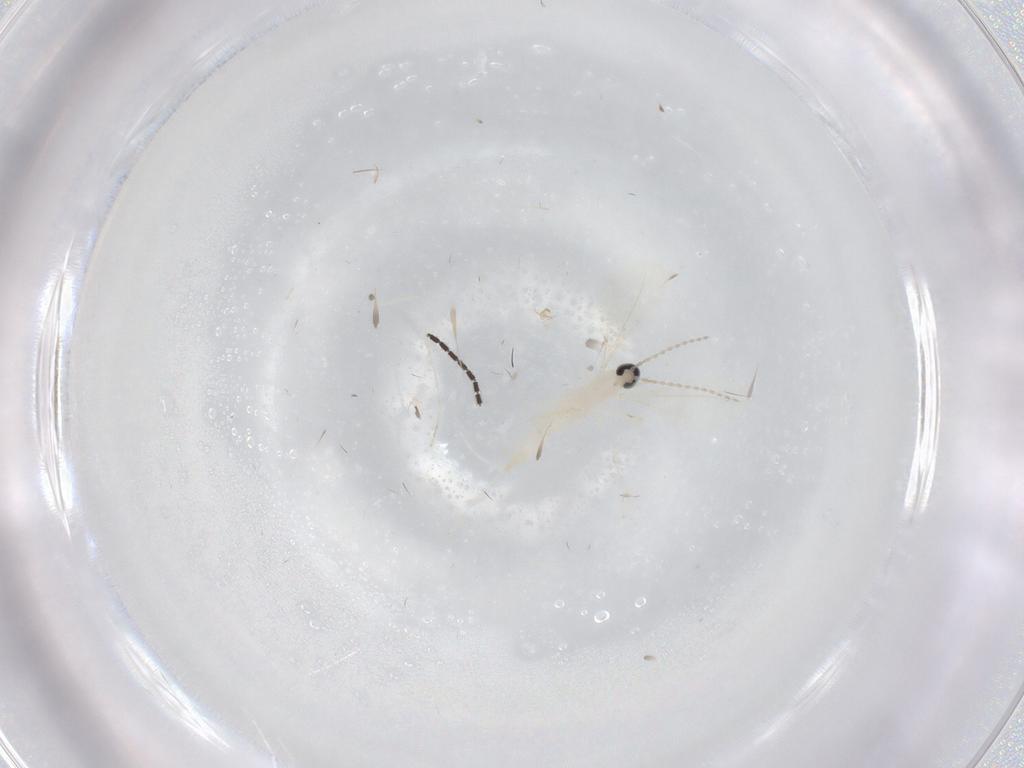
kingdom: Animalia
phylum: Arthropoda
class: Insecta
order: Diptera
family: Cecidomyiidae
